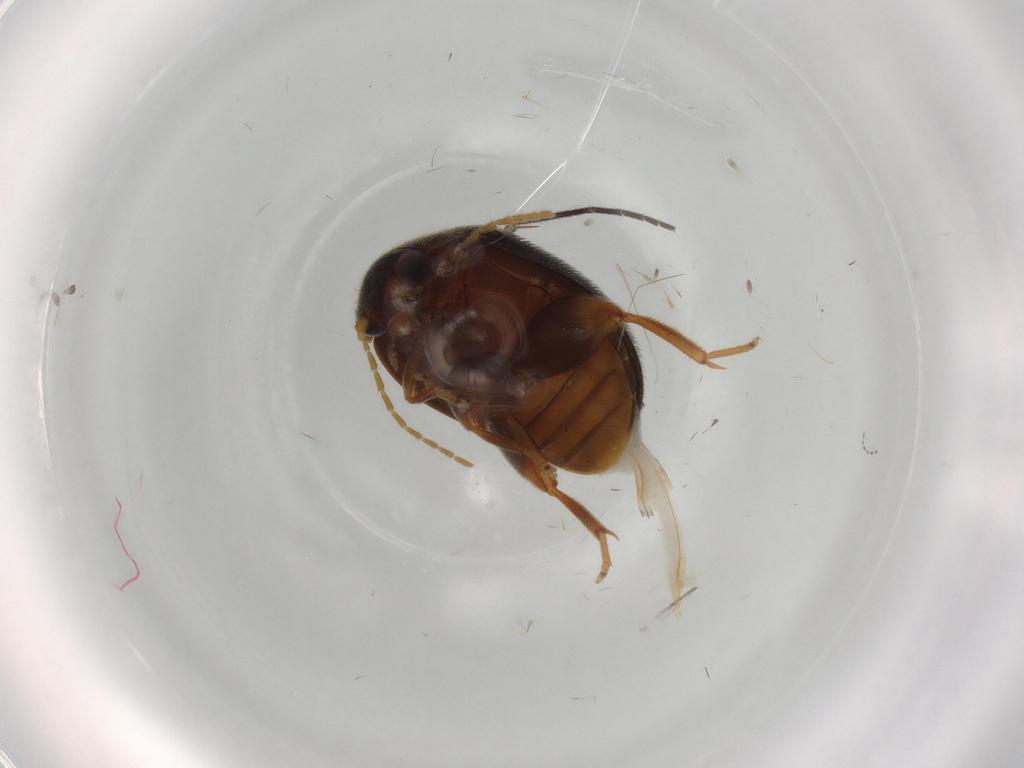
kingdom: Animalia
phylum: Arthropoda
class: Insecta
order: Coleoptera
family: Scirtidae
